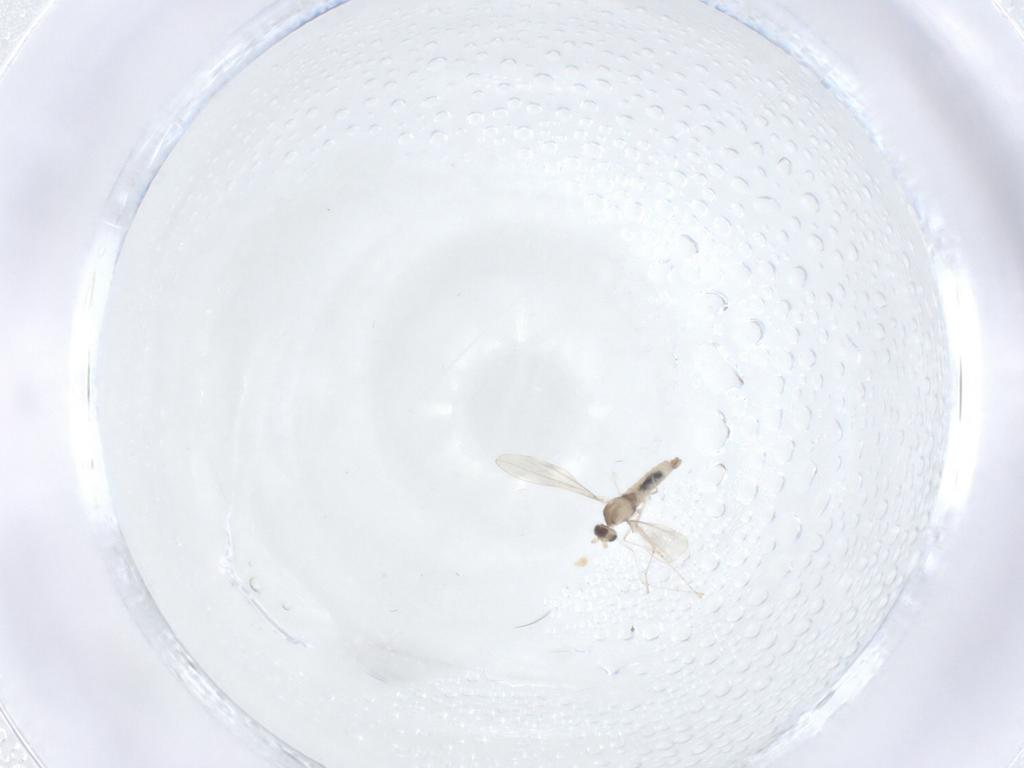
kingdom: Animalia
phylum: Arthropoda
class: Insecta
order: Diptera
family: Cecidomyiidae
